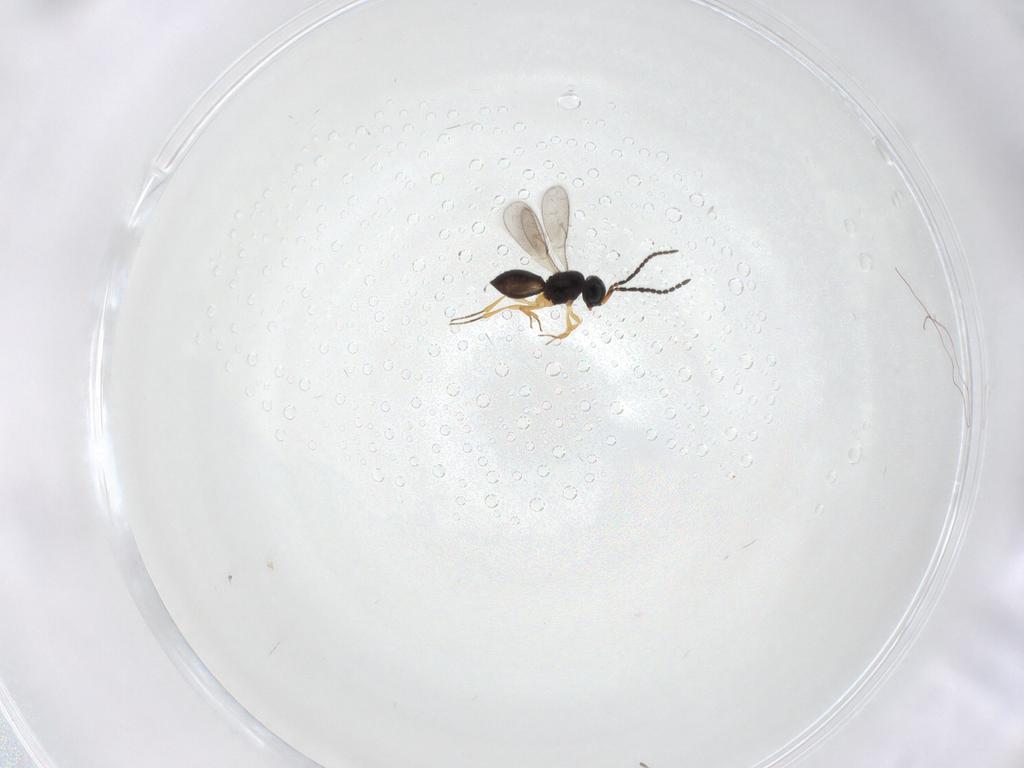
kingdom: Animalia
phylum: Arthropoda
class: Insecta
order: Hymenoptera
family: Scelionidae
